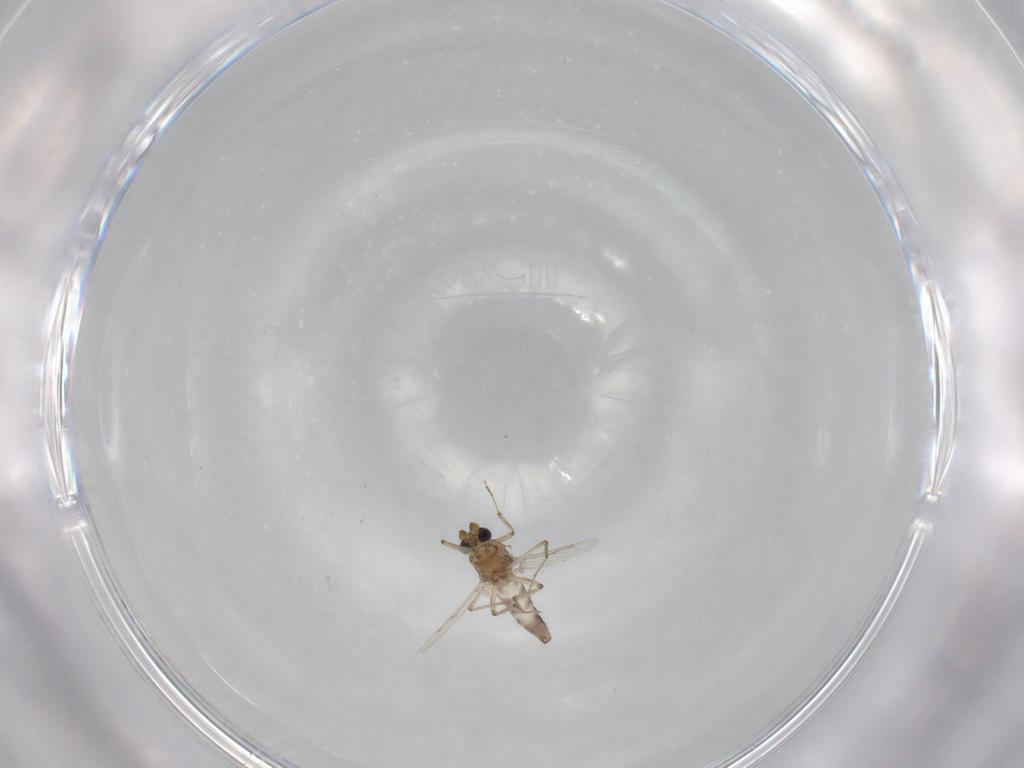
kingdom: Animalia
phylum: Arthropoda
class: Insecta
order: Diptera
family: Ceratopogonidae
